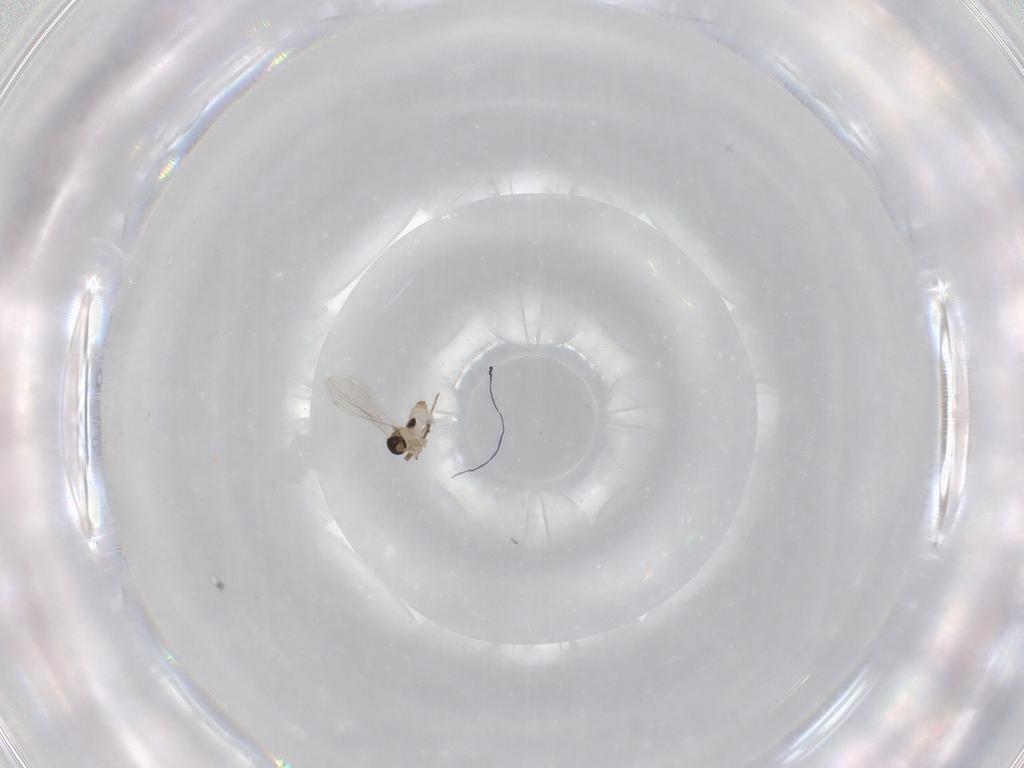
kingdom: Animalia
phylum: Arthropoda
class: Insecta
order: Diptera
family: Cecidomyiidae
